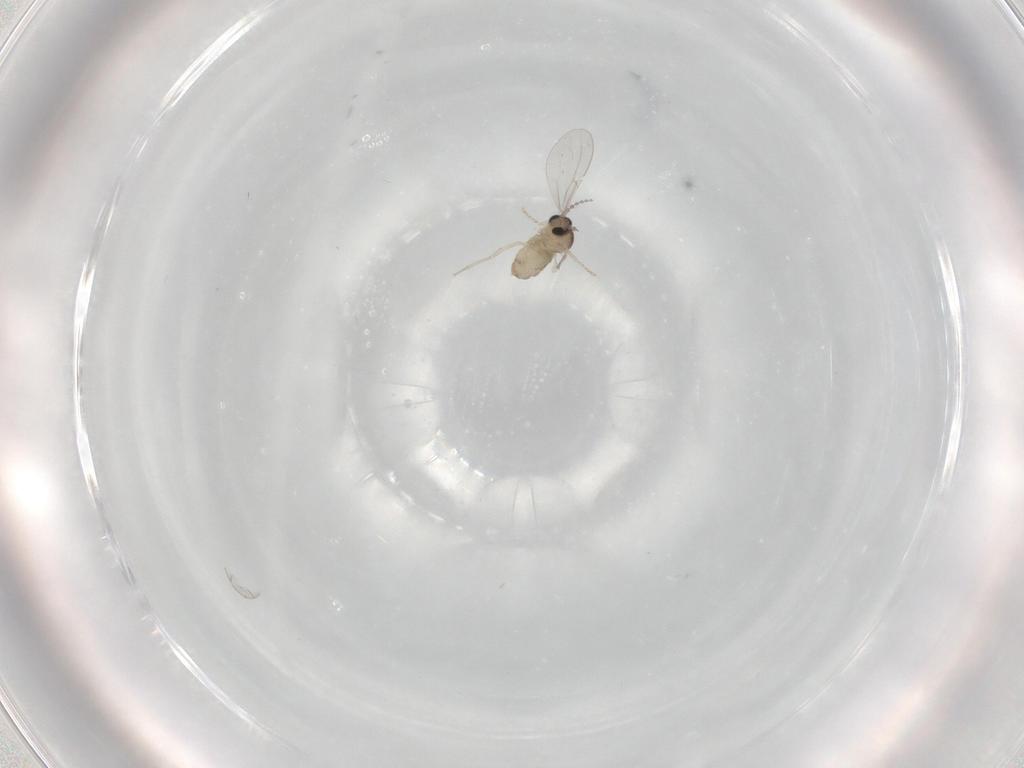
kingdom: Animalia
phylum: Arthropoda
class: Insecta
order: Diptera
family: Cecidomyiidae
